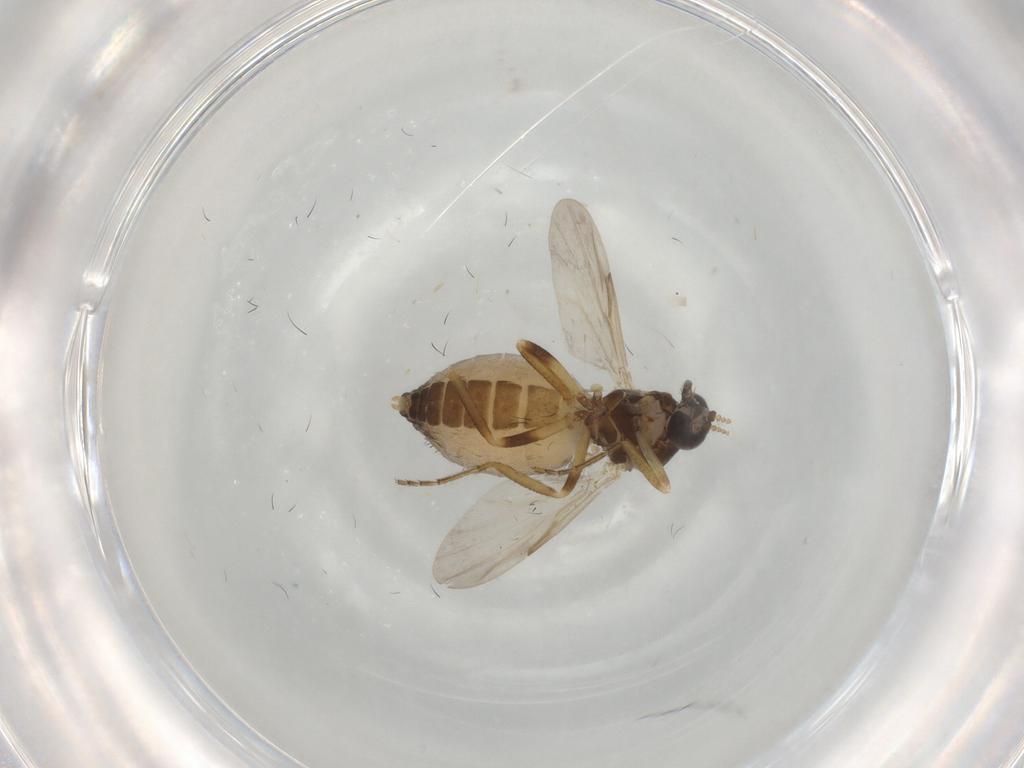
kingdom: Animalia
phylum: Arthropoda
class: Insecta
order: Diptera
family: Ceratopogonidae
